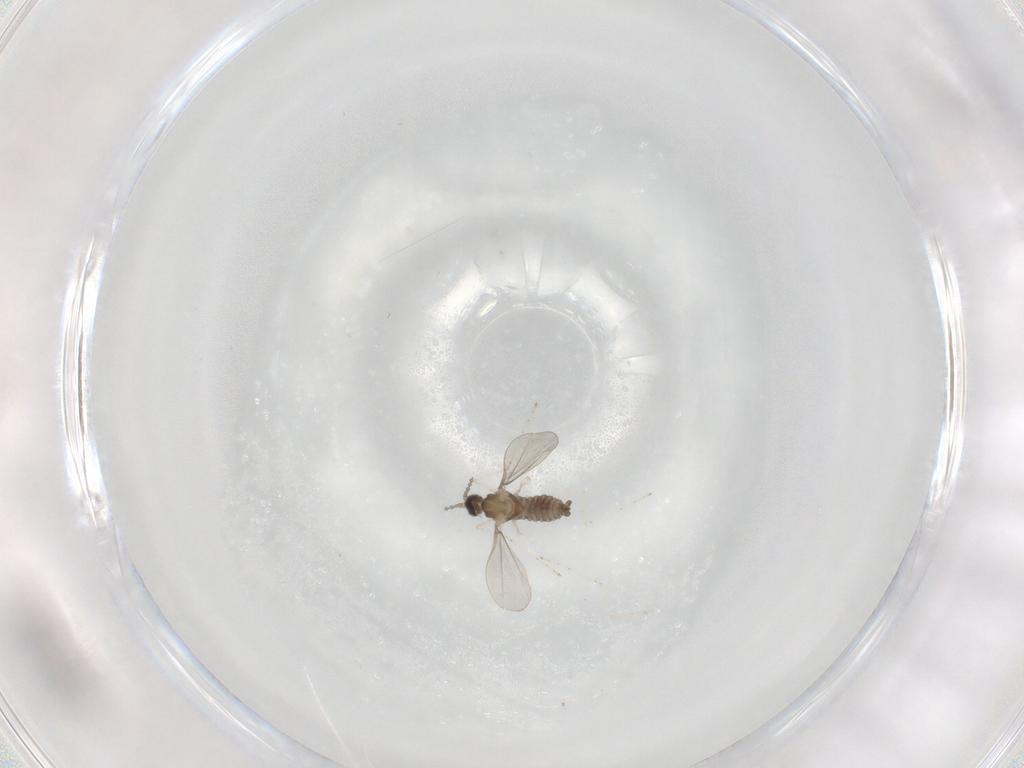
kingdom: Animalia
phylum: Arthropoda
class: Insecta
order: Diptera
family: Cecidomyiidae
